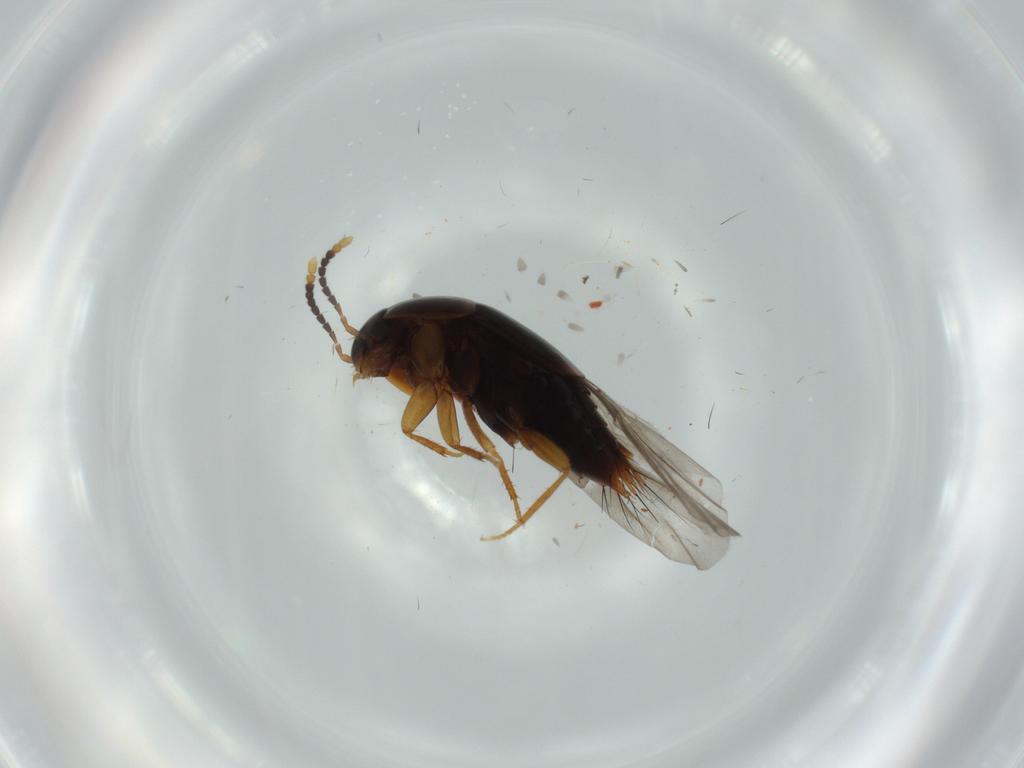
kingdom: Animalia
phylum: Arthropoda
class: Insecta
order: Coleoptera
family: Staphylinidae
